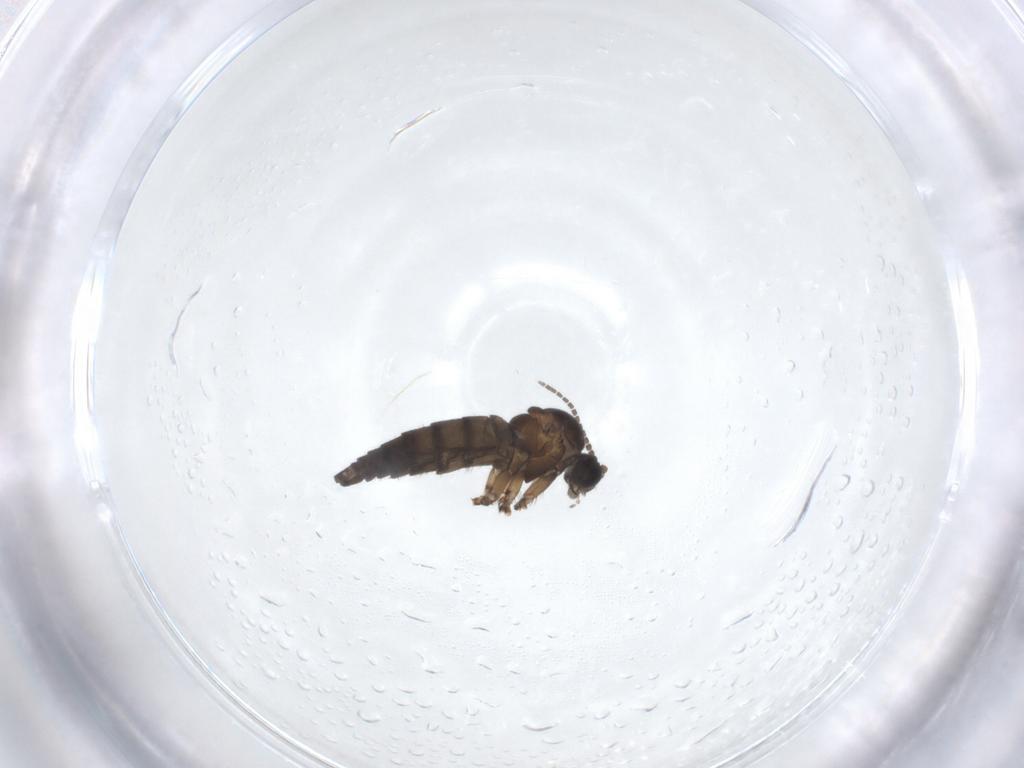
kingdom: Animalia
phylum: Arthropoda
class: Insecta
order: Diptera
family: Sciaridae
